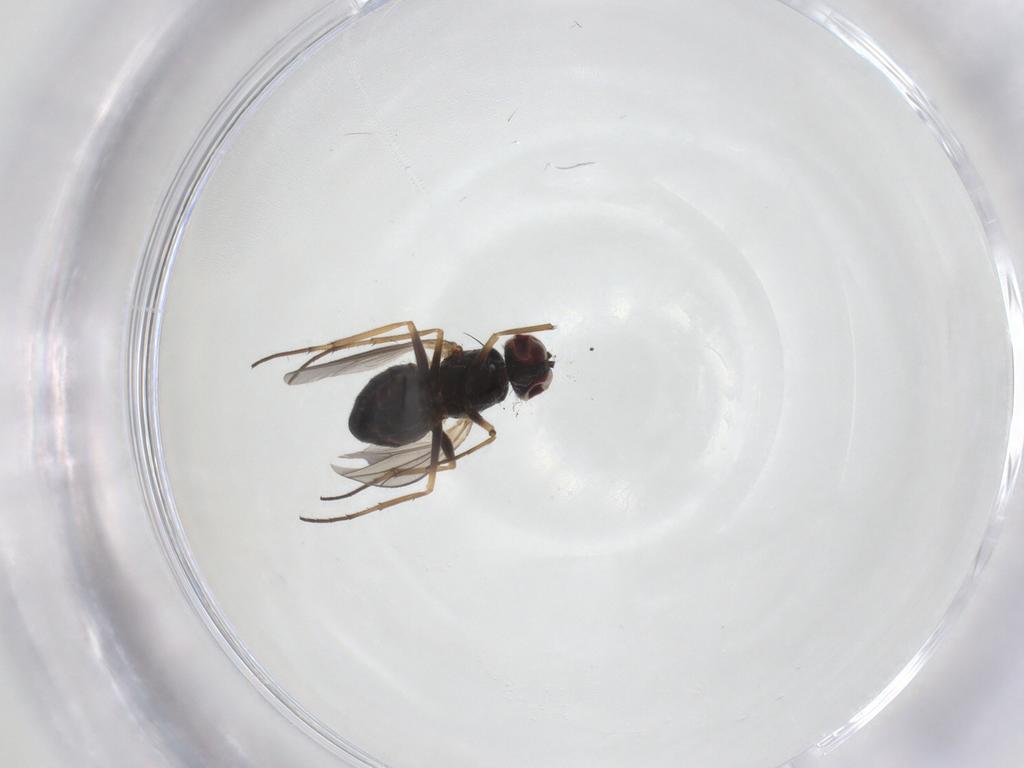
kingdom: Animalia
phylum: Arthropoda
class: Insecta
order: Diptera
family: Dolichopodidae
